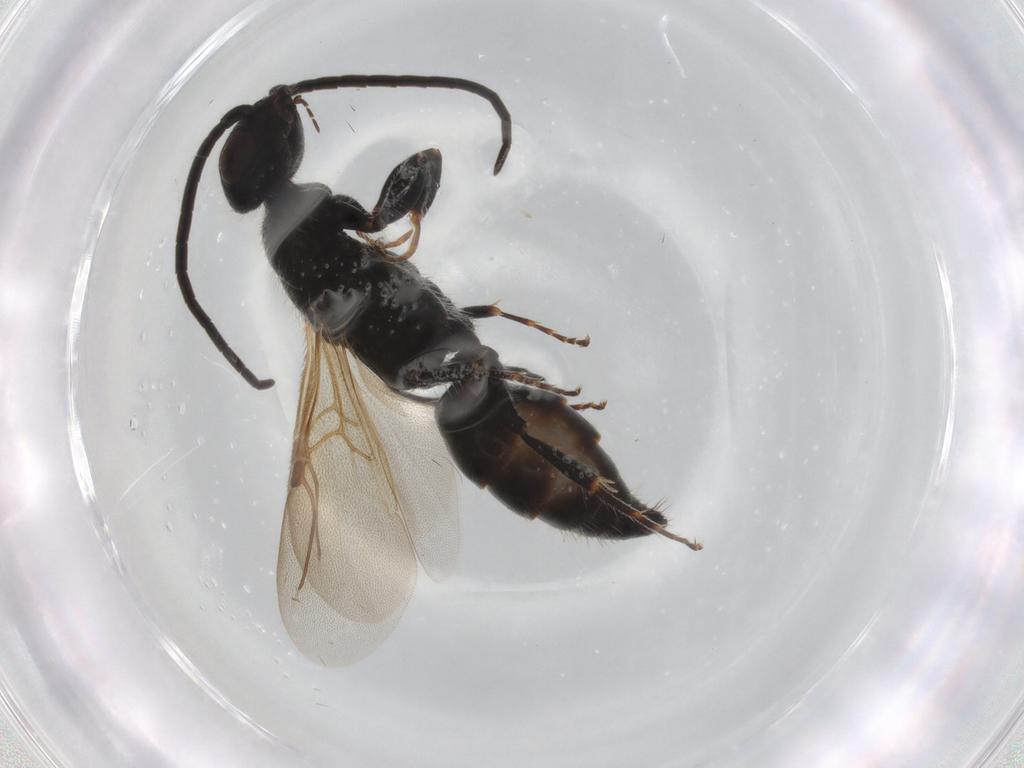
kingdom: Animalia
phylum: Arthropoda
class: Insecta
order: Hymenoptera
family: Bethylidae
